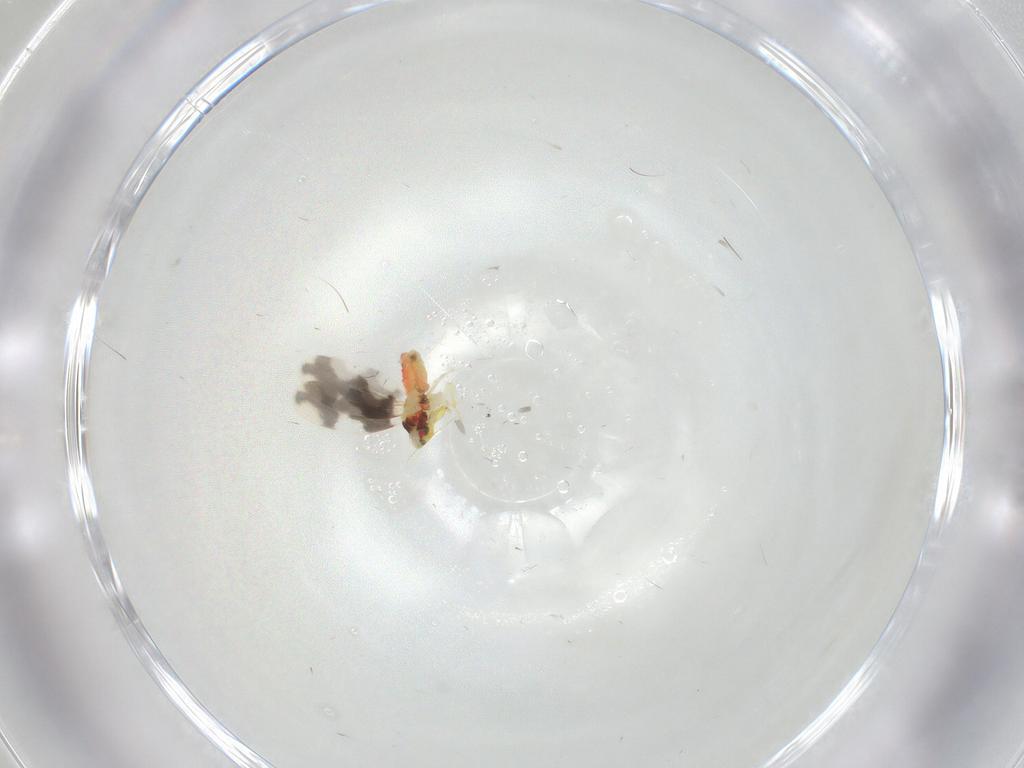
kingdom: Animalia
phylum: Arthropoda
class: Insecta
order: Hemiptera
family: Aleyrodidae
